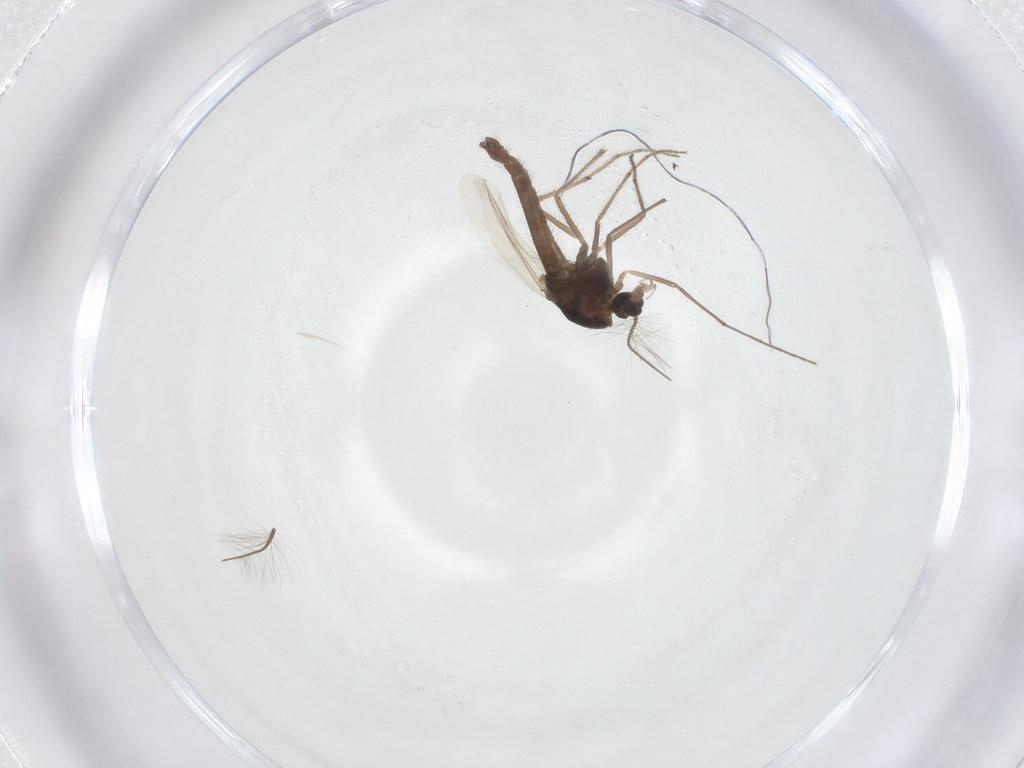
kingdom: Animalia
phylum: Arthropoda
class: Insecta
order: Diptera
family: Chironomidae
